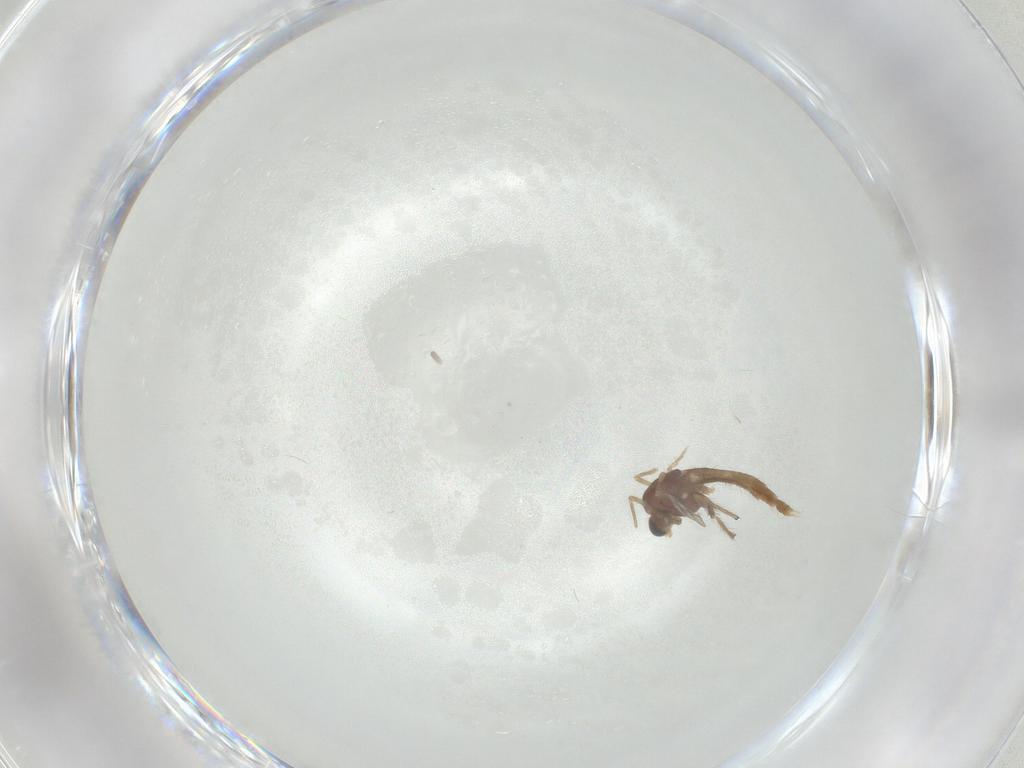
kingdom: Animalia
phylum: Arthropoda
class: Insecta
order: Diptera
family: Chironomidae
